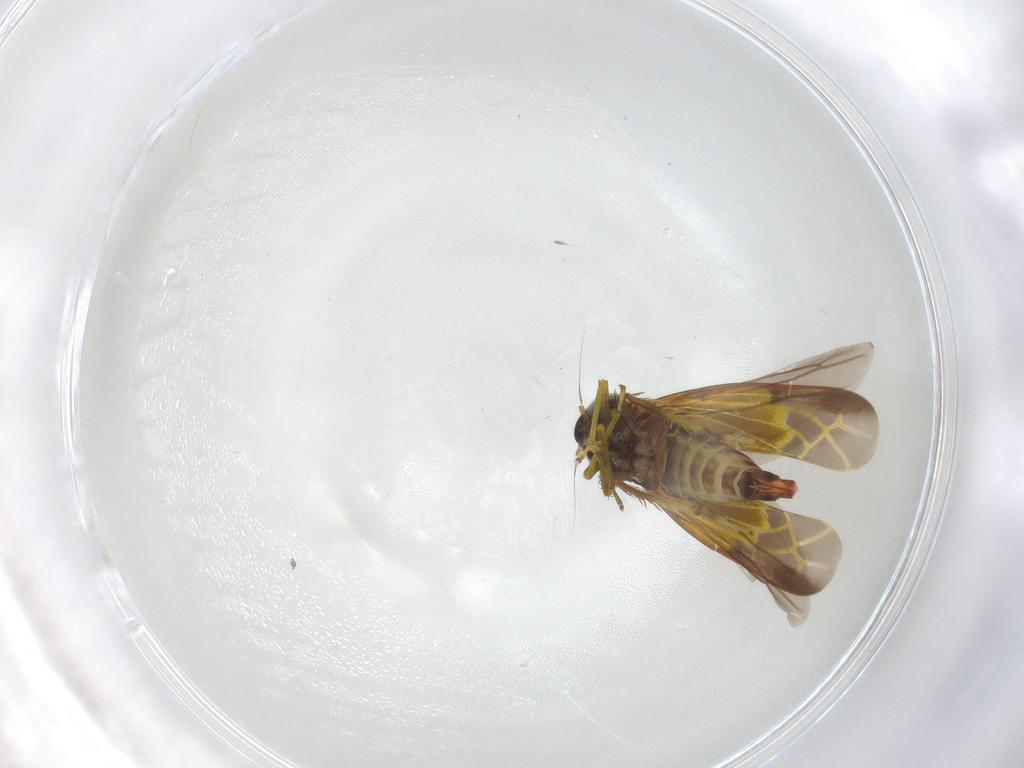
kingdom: Animalia
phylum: Arthropoda
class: Insecta
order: Hemiptera
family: Cicadellidae
